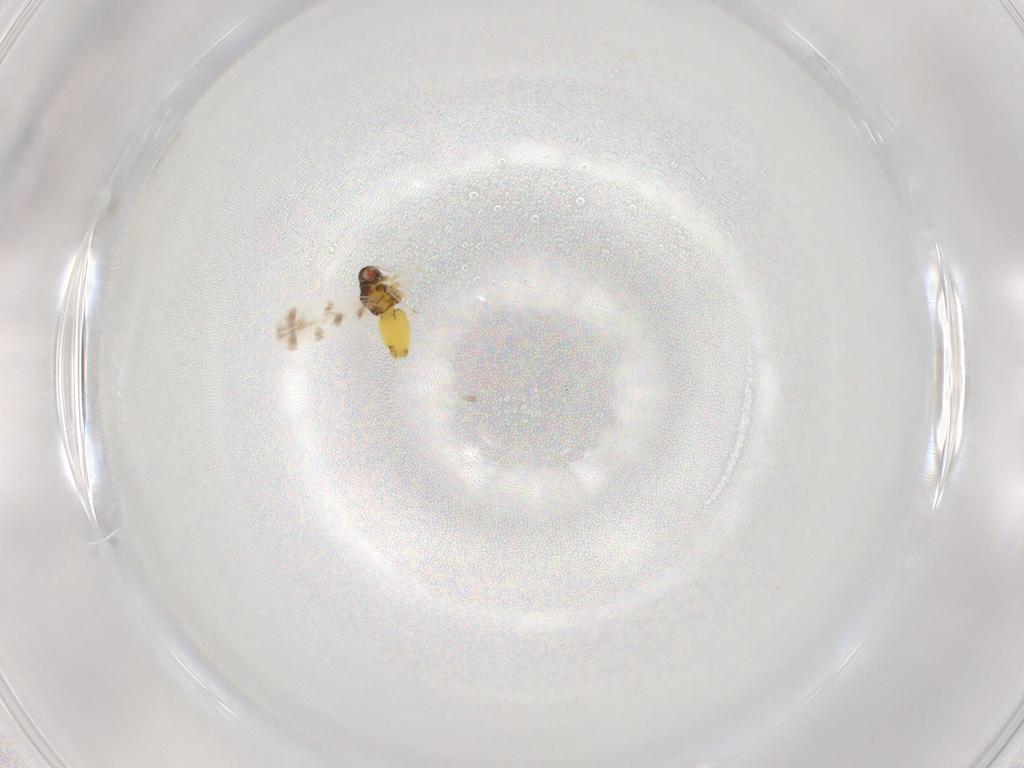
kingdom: Animalia
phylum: Arthropoda
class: Insecta
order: Hemiptera
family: Aleyrodidae
